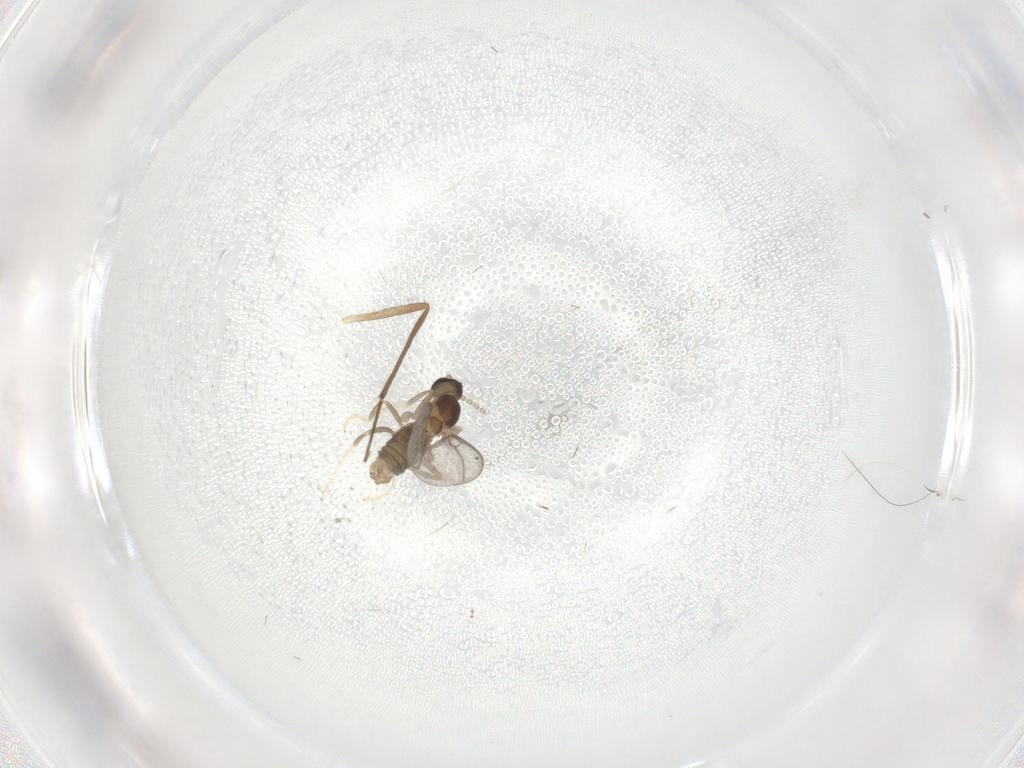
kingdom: Animalia
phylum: Arthropoda
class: Insecta
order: Diptera
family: Cecidomyiidae
